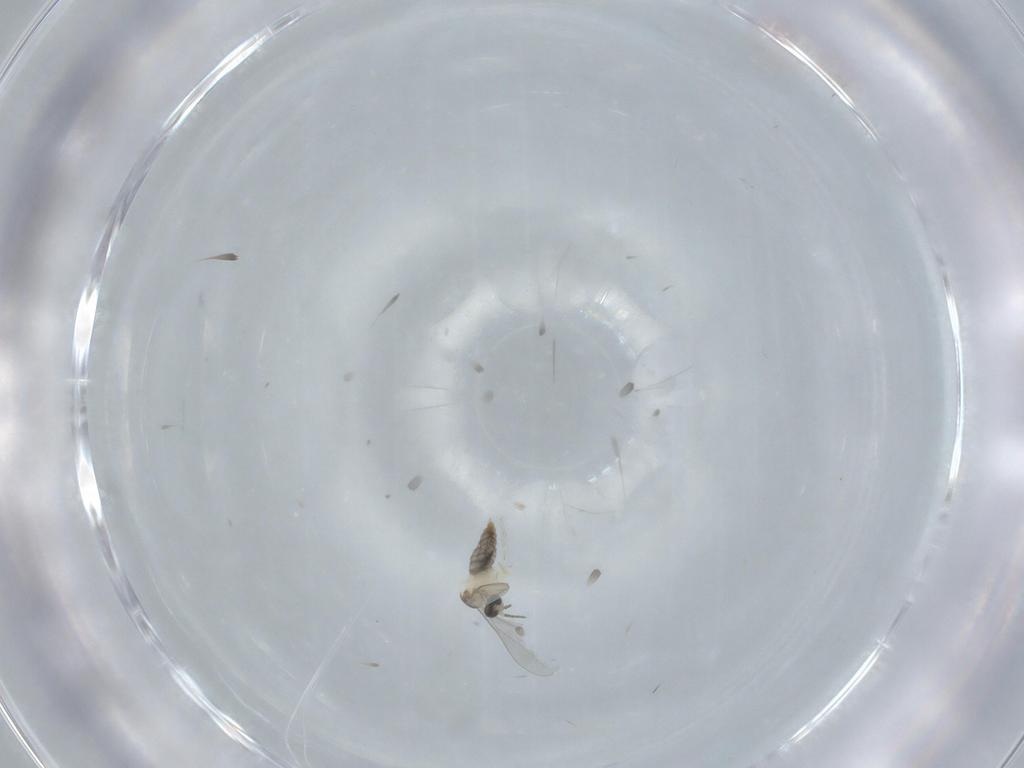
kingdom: Animalia
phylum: Arthropoda
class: Insecta
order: Diptera
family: Cecidomyiidae
